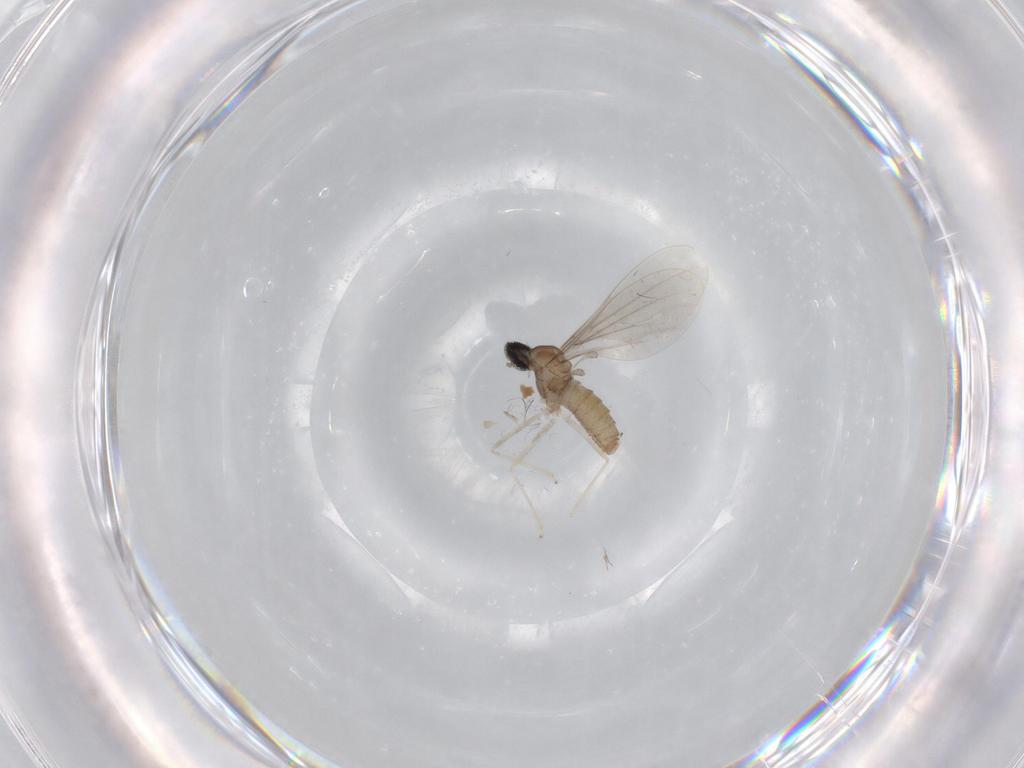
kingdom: Animalia
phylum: Arthropoda
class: Insecta
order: Diptera
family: Cecidomyiidae
